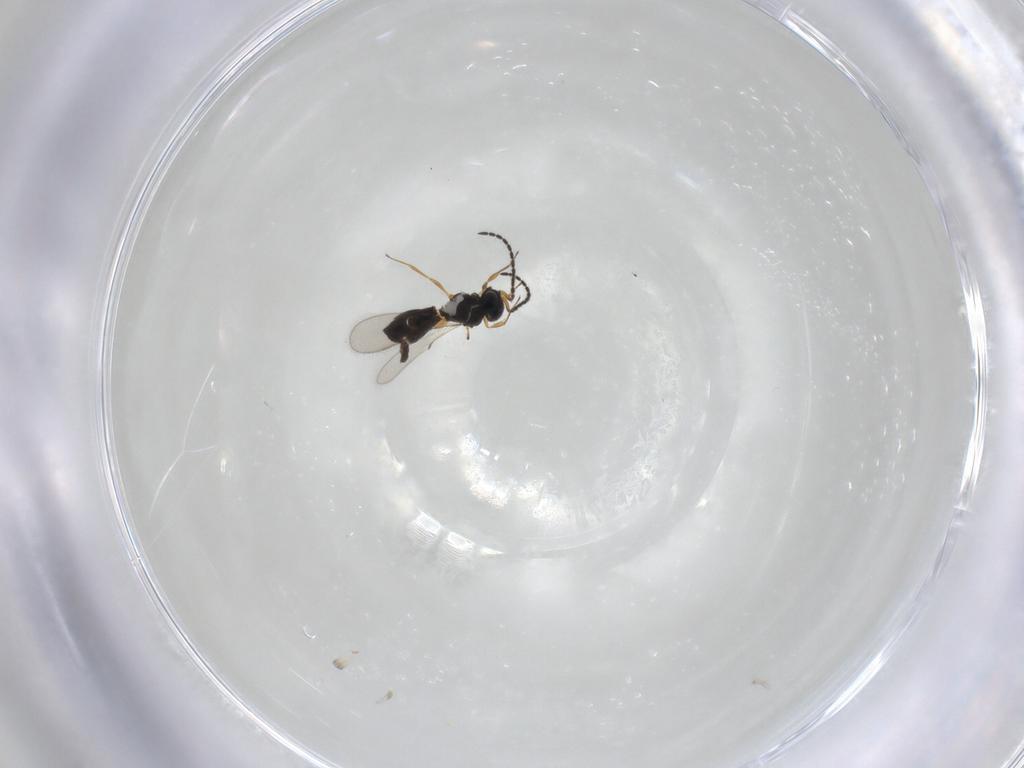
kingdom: Animalia
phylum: Arthropoda
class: Insecta
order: Hymenoptera
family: Scelionidae
